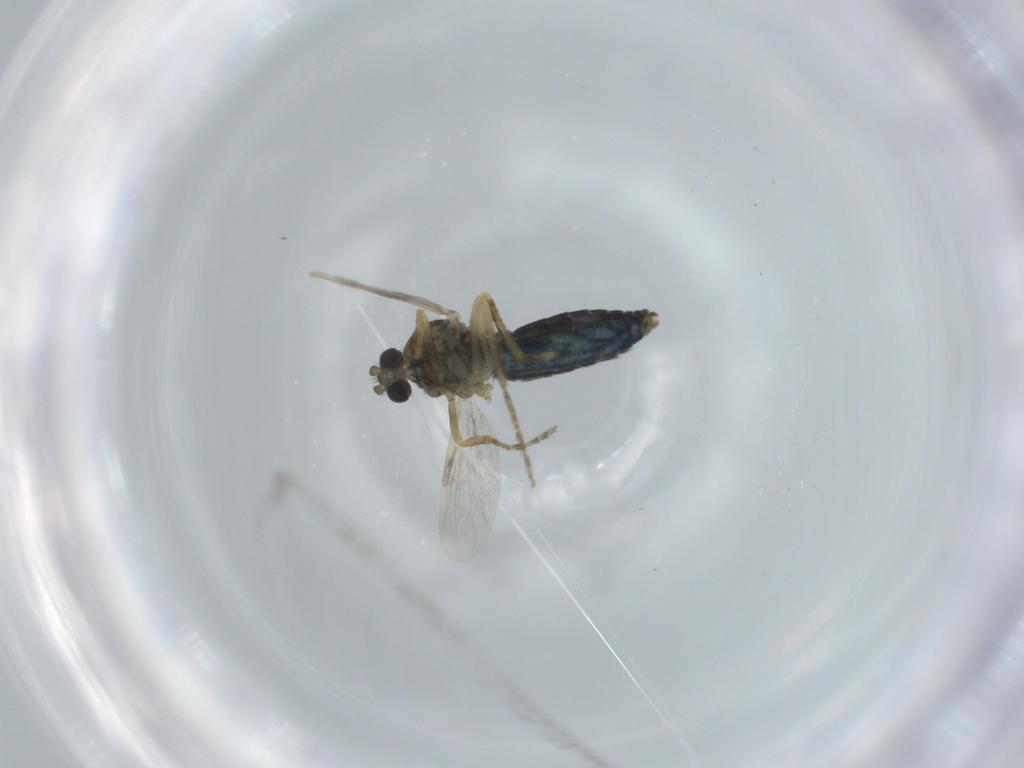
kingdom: Animalia
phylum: Arthropoda
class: Insecta
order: Diptera
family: Ceratopogonidae
